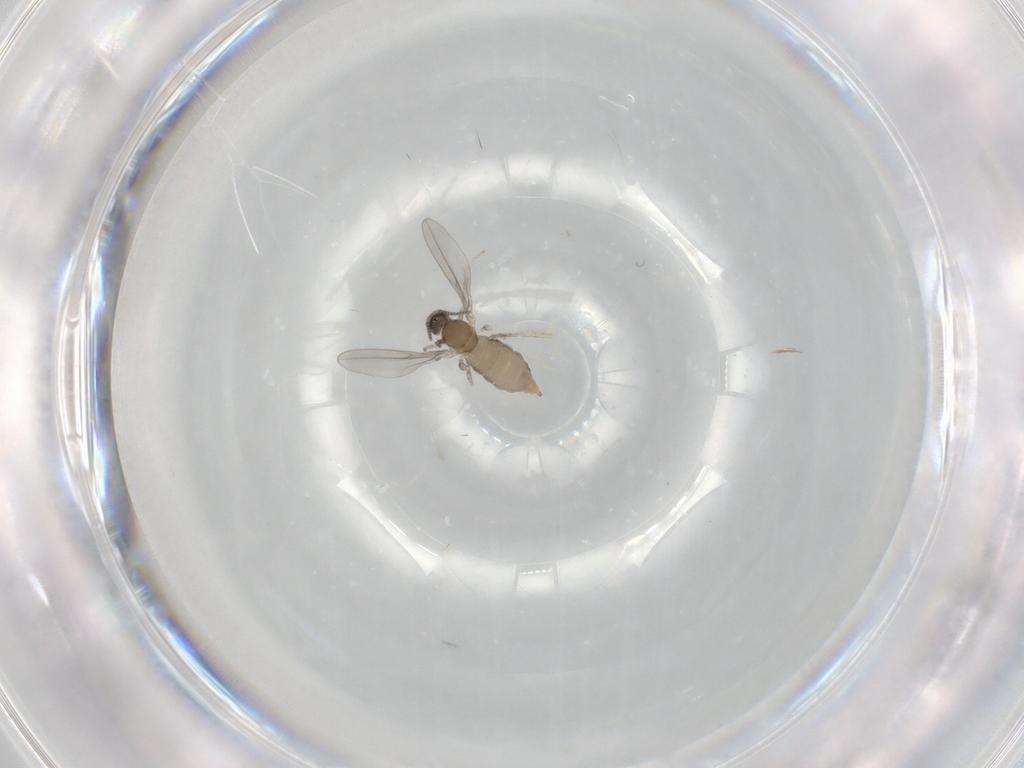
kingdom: Animalia
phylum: Arthropoda
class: Insecta
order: Diptera
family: Cecidomyiidae
